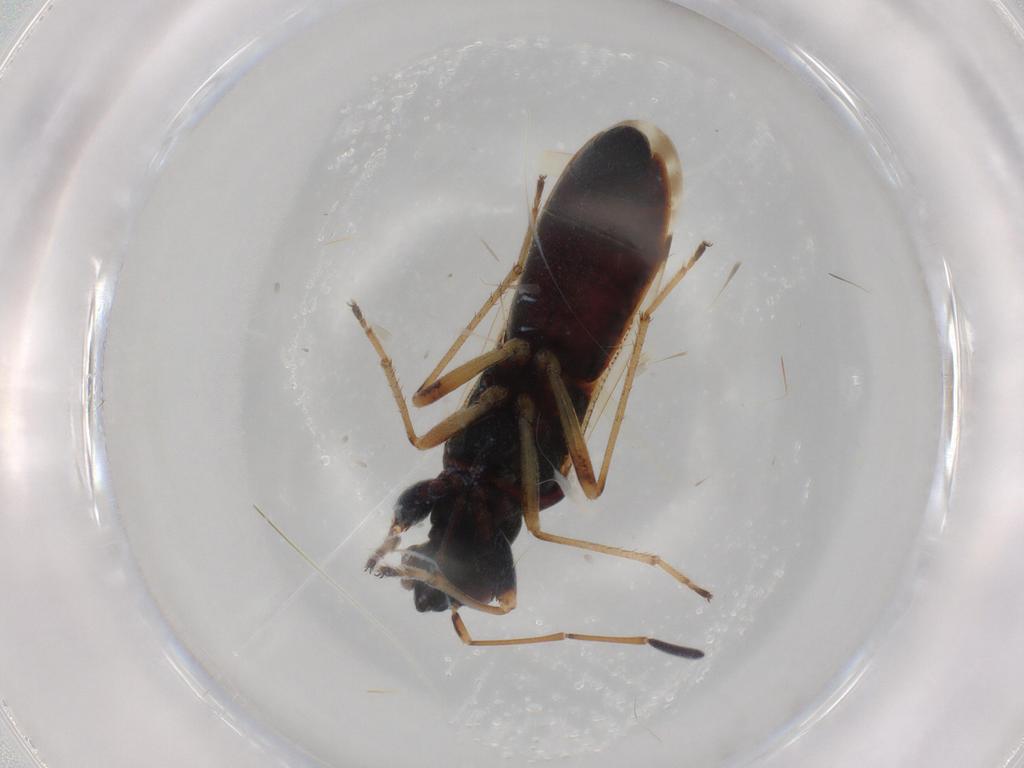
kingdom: Animalia
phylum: Arthropoda
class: Insecta
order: Hemiptera
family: Rhyparochromidae
